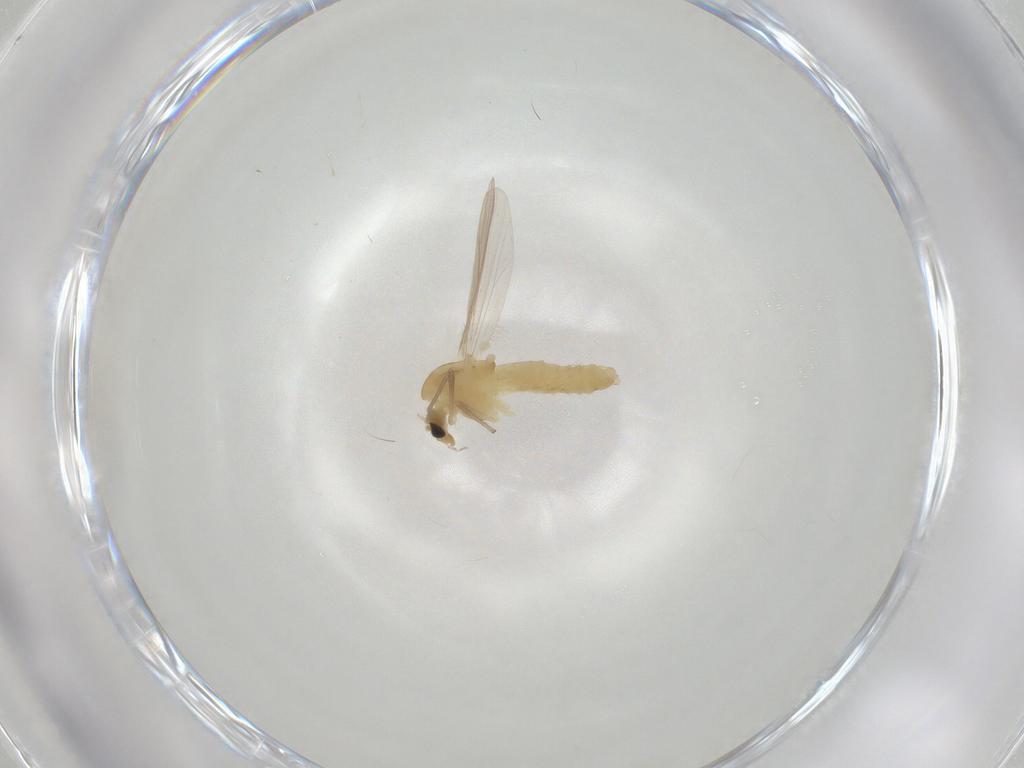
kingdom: Animalia
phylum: Arthropoda
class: Insecta
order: Diptera
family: Chironomidae
